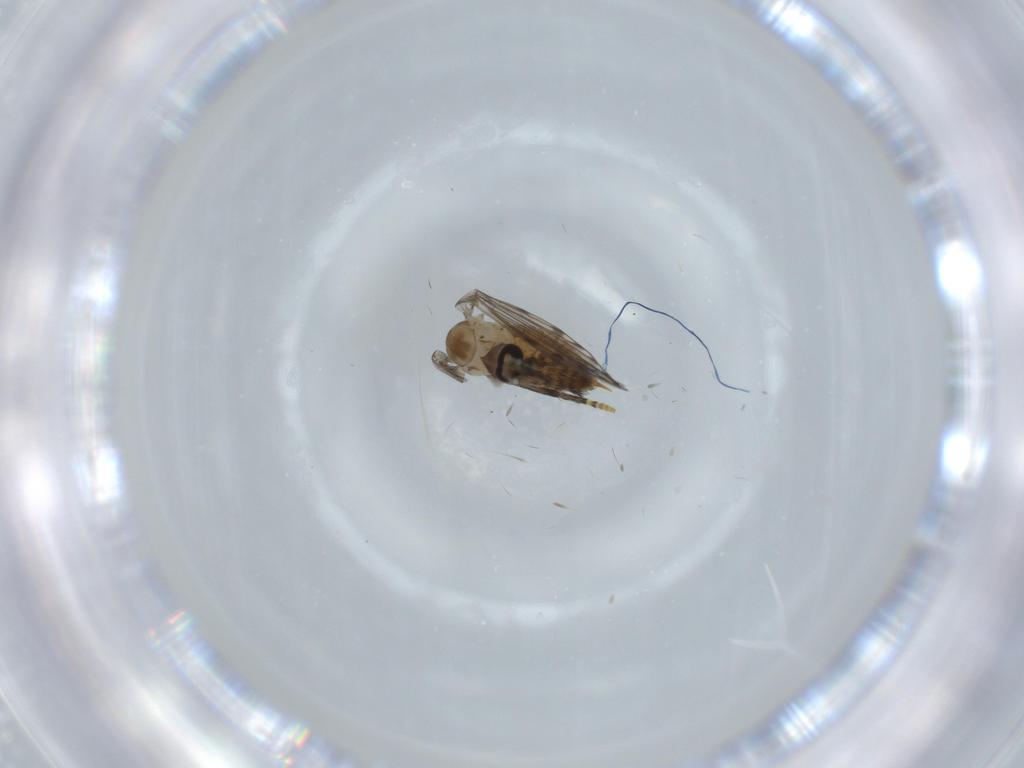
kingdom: Animalia
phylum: Arthropoda
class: Insecta
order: Diptera
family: Psychodidae
